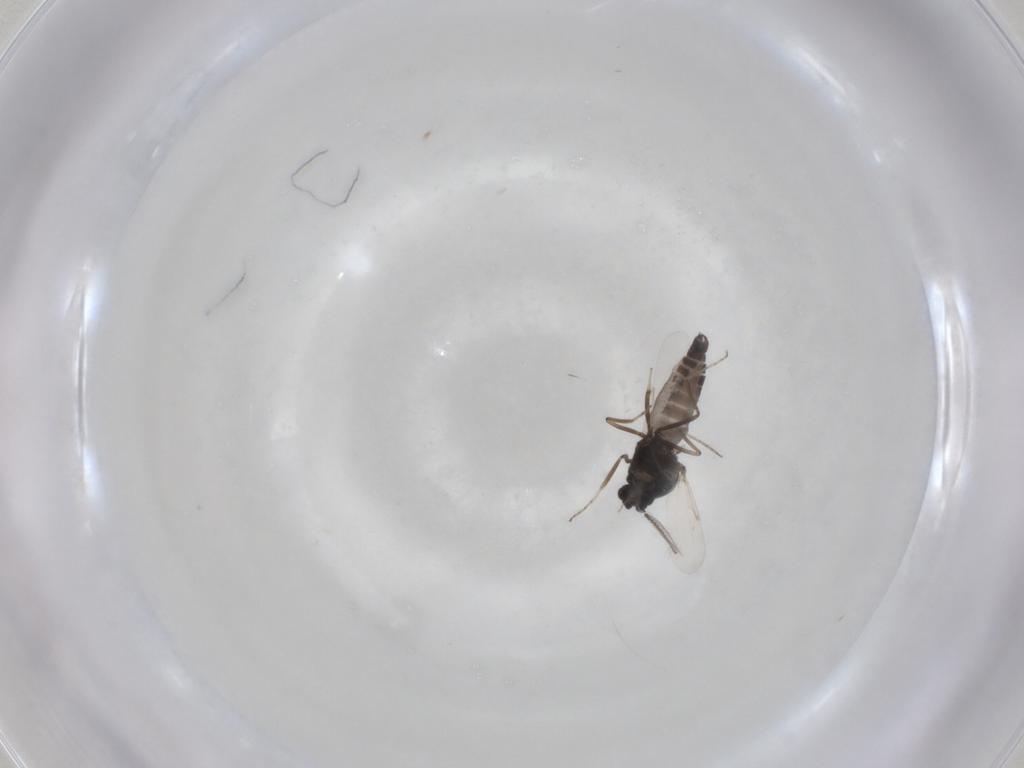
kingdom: Animalia
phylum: Arthropoda
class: Insecta
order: Diptera
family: Ceratopogonidae
